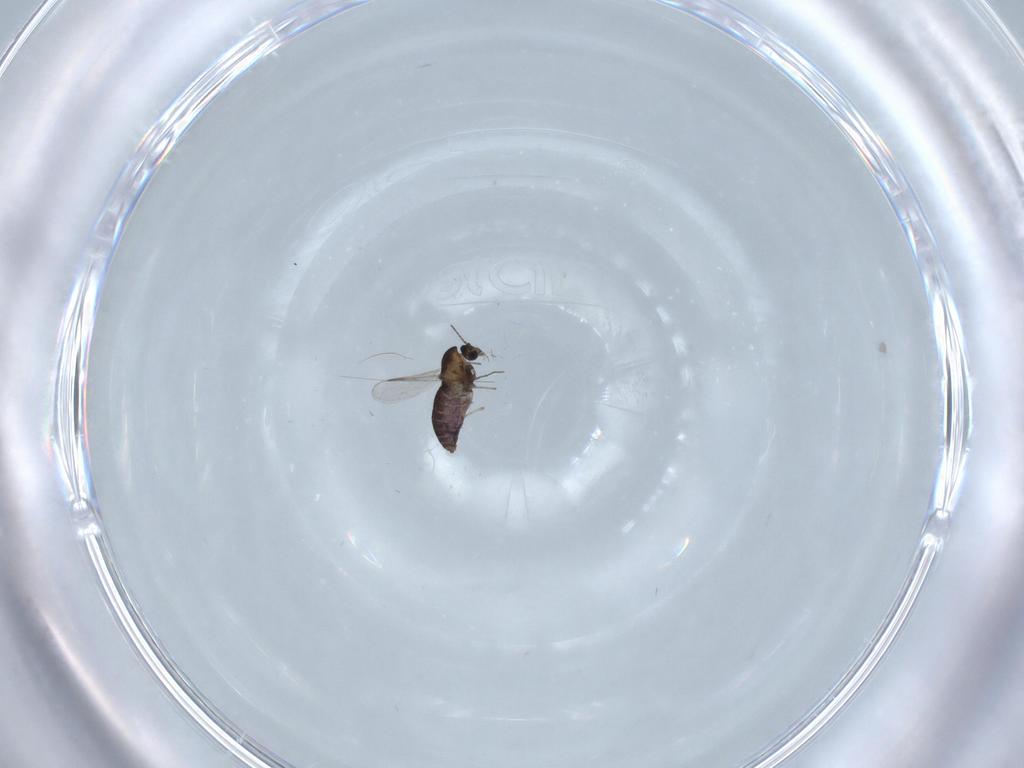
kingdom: Animalia
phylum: Arthropoda
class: Insecta
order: Diptera
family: Chironomidae
